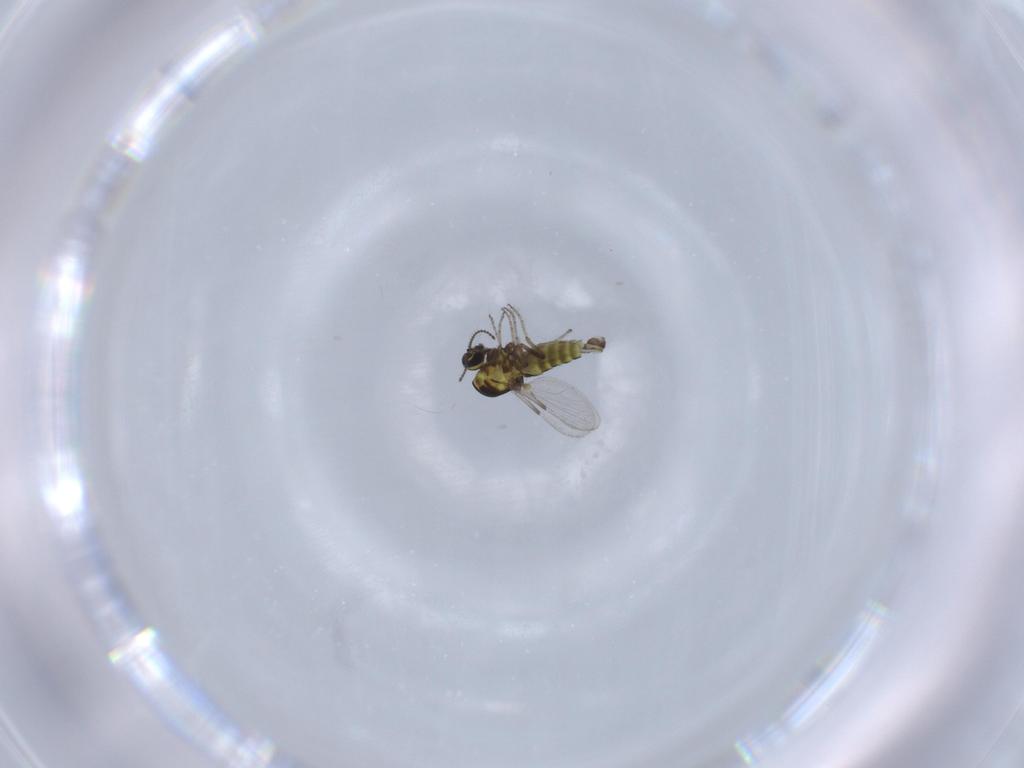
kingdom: Animalia
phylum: Arthropoda
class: Insecta
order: Diptera
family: Ceratopogonidae
